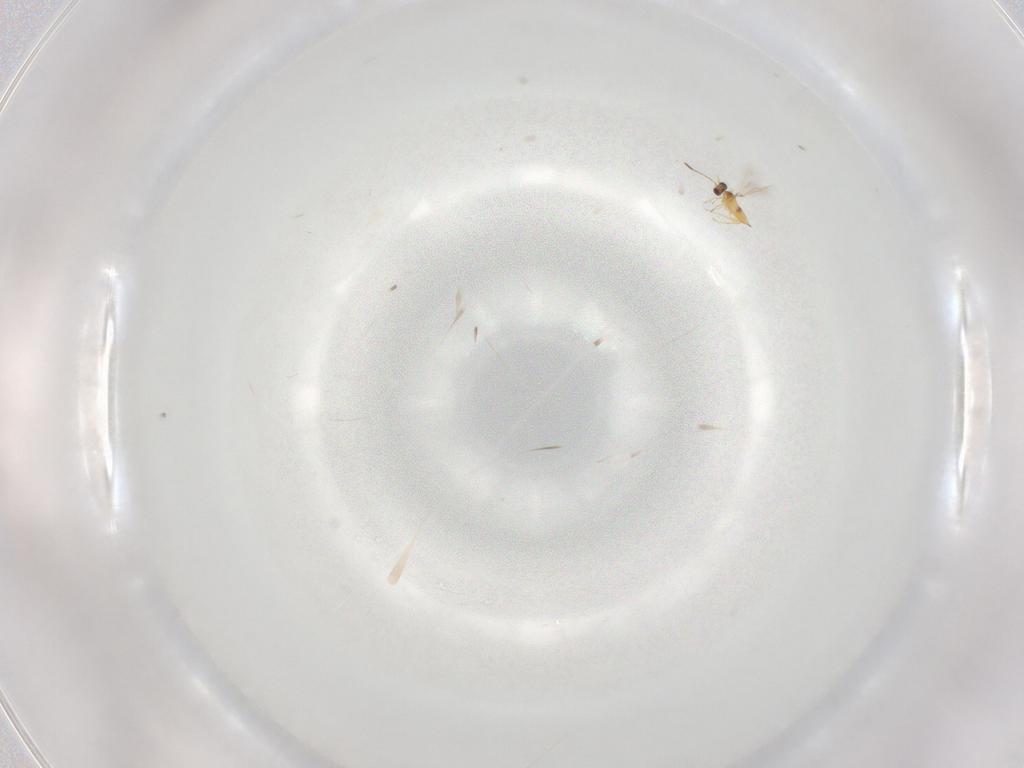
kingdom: Animalia
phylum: Arthropoda
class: Insecta
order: Hymenoptera
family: Mymaridae
